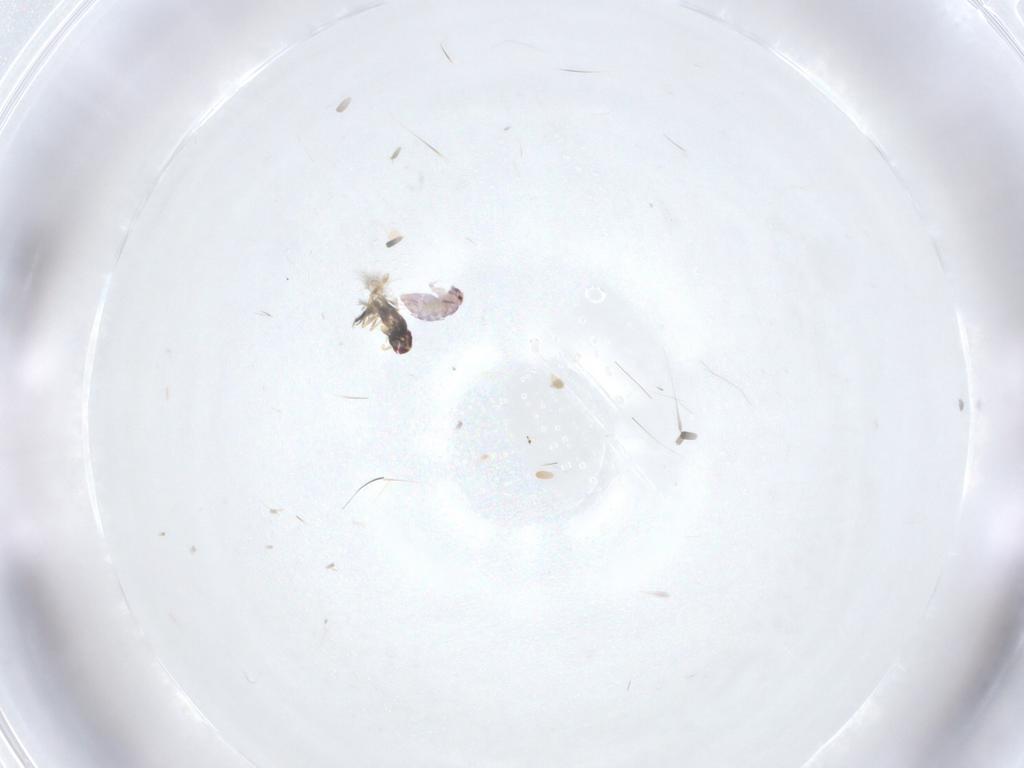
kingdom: Animalia
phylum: Arthropoda
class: Insecta
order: Hymenoptera
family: Mymaridae
